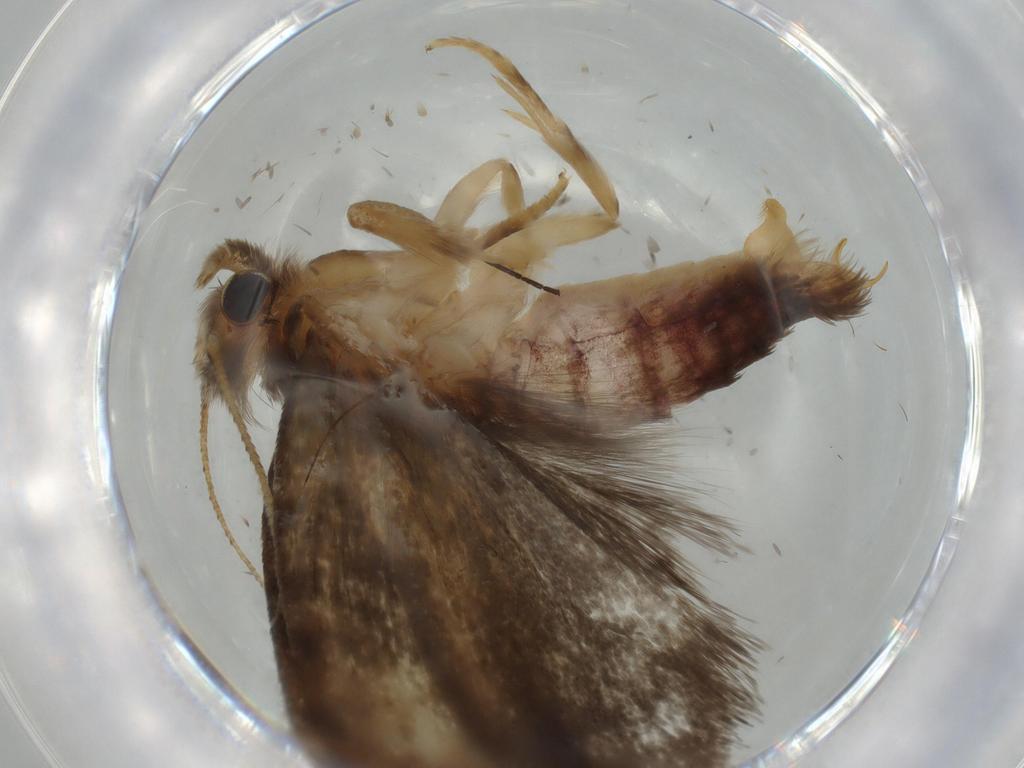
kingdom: Animalia
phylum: Arthropoda
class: Insecta
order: Lepidoptera
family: Tineidae
